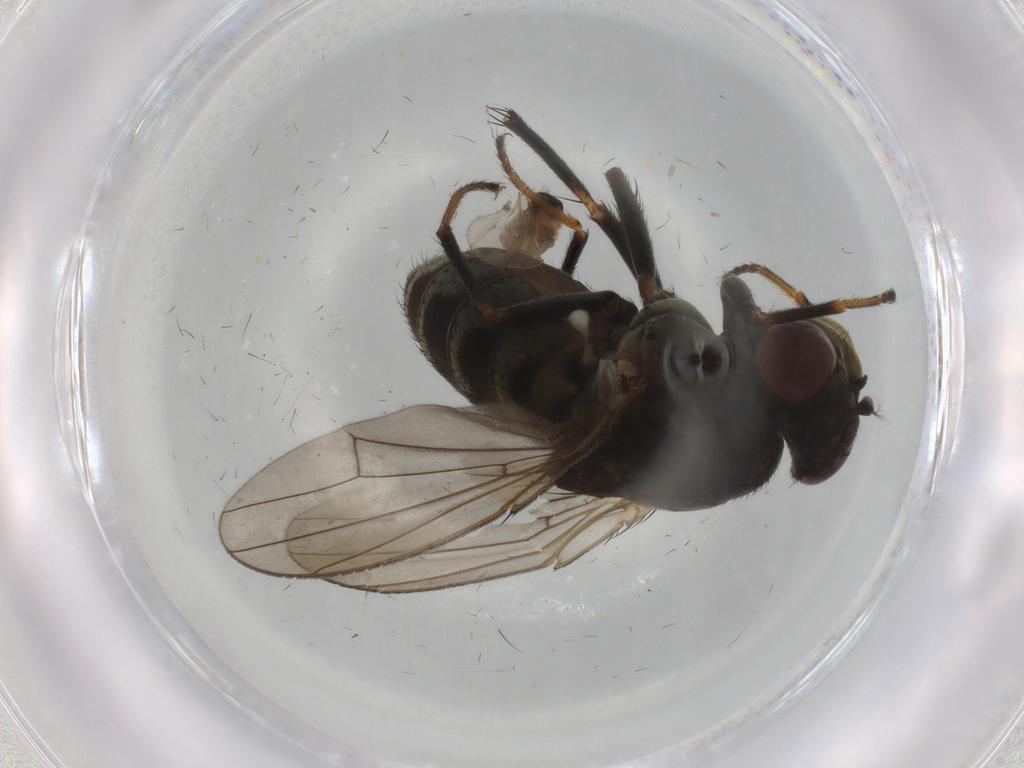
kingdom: Animalia
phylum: Arthropoda
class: Insecta
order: Diptera
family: Ephydridae
